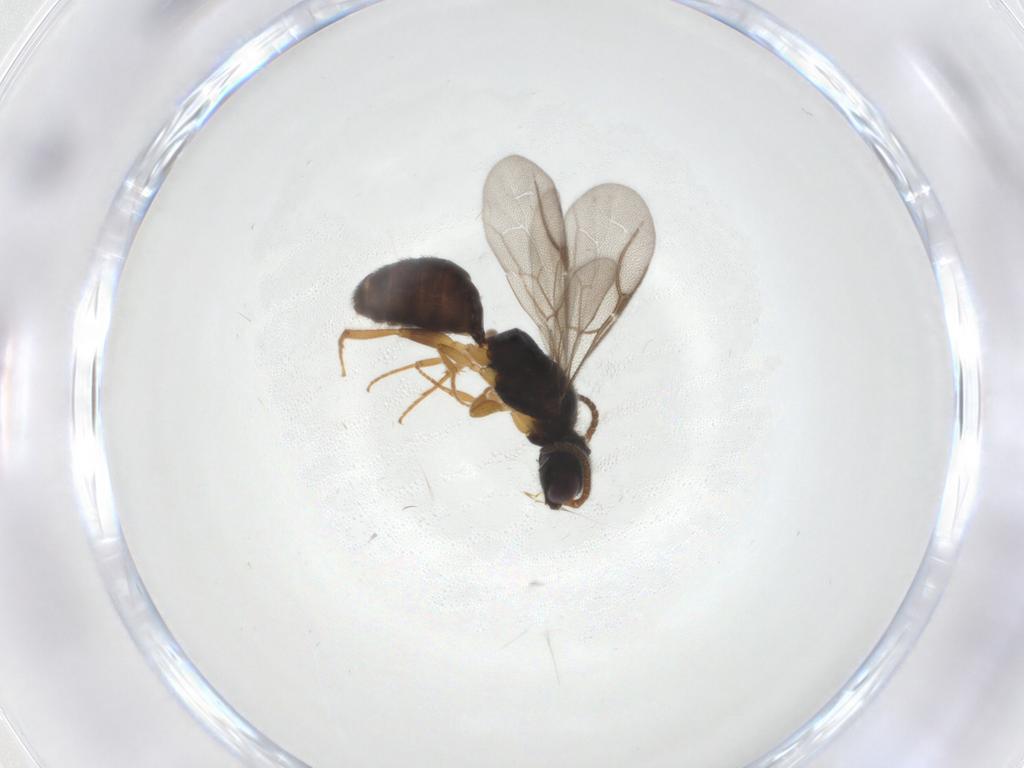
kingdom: Animalia
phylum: Arthropoda
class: Insecta
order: Hymenoptera
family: Bethylidae
